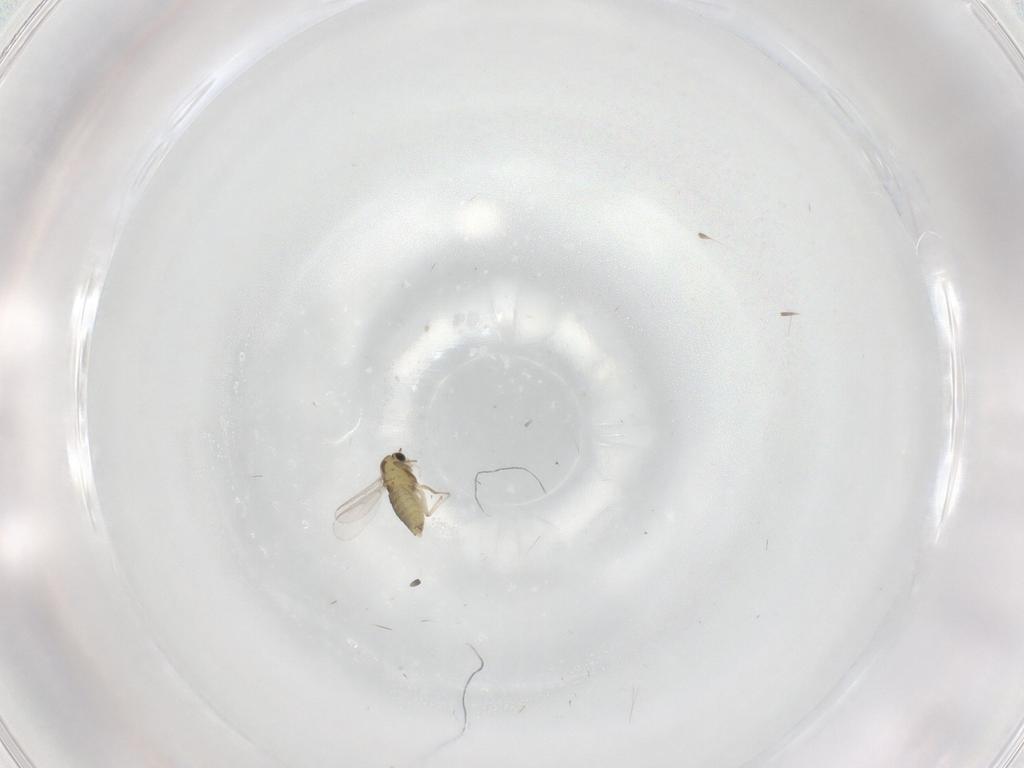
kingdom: Animalia
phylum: Arthropoda
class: Insecta
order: Diptera
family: Chironomidae
